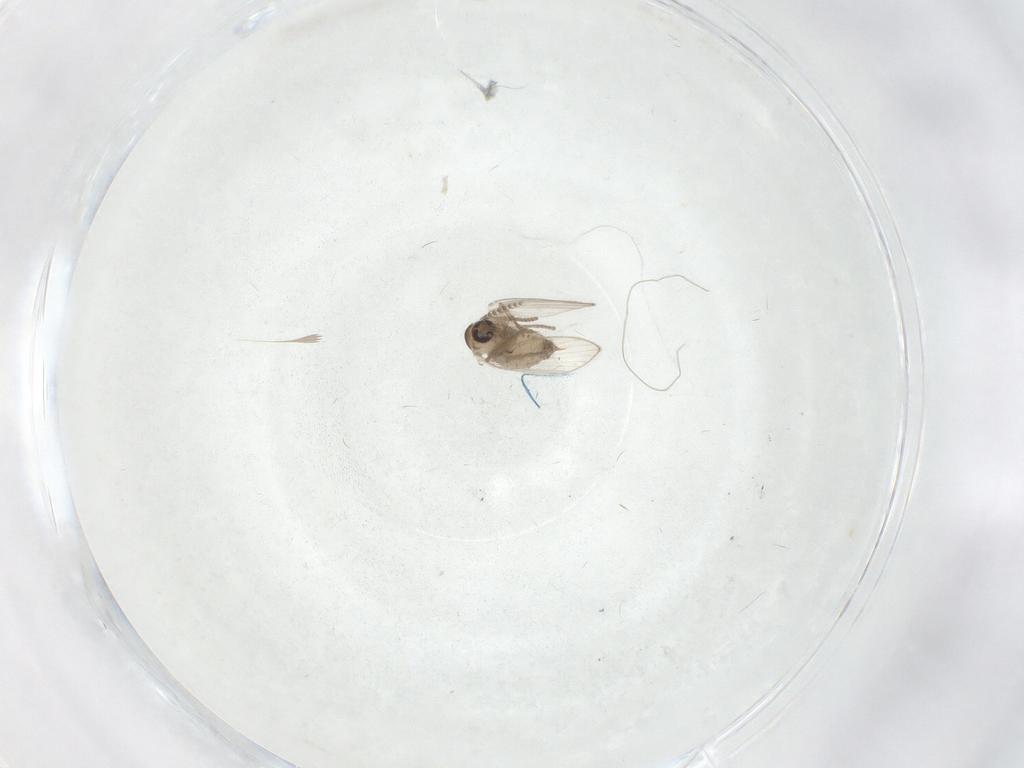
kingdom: Animalia
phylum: Arthropoda
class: Insecta
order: Diptera
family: Psychodidae
